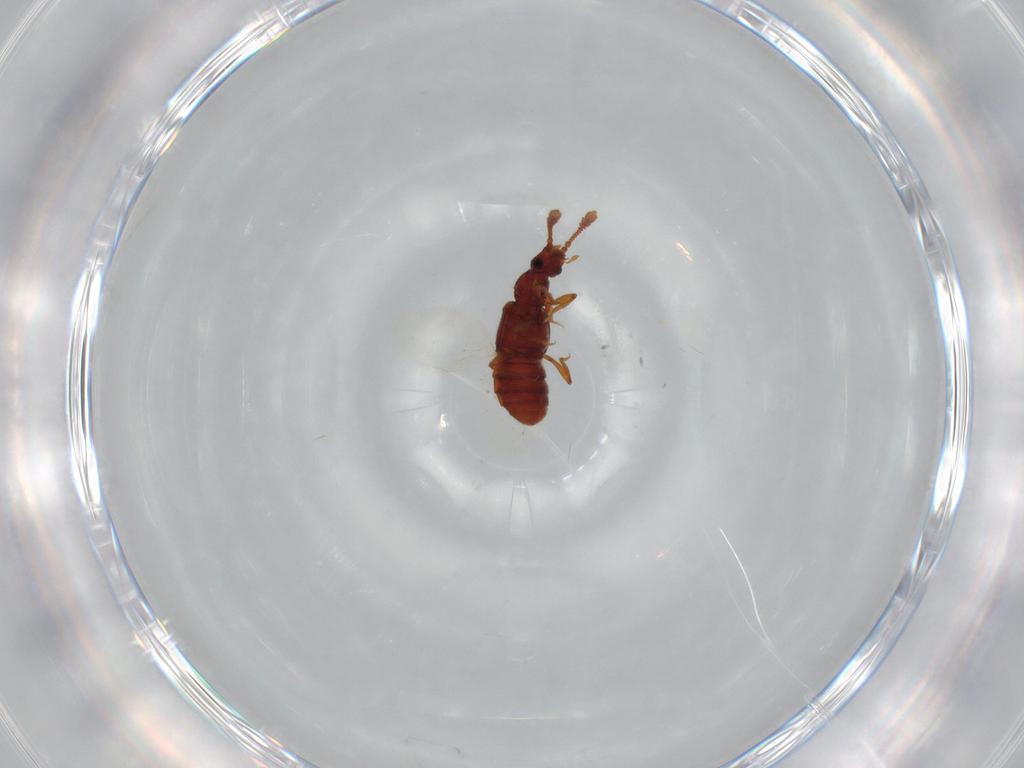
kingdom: Animalia
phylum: Arthropoda
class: Insecta
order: Coleoptera
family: Staphylinidae
